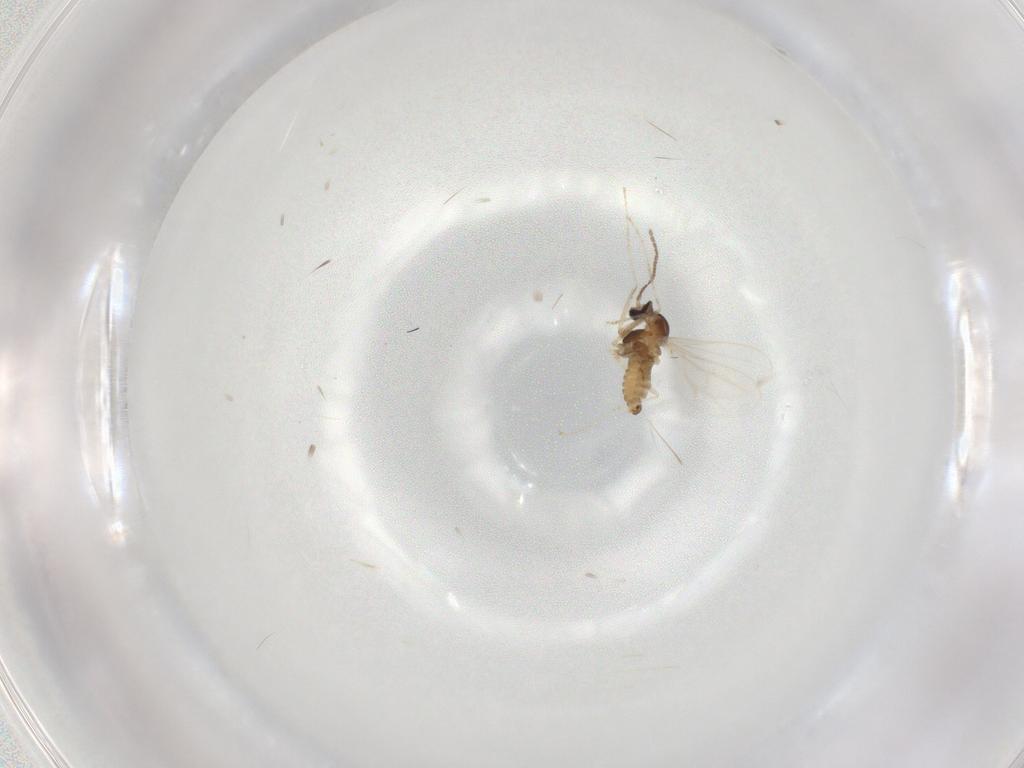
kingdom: Animalia
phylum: Arthropoda
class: Insecta
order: Diptera
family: Cecidomyiidae
